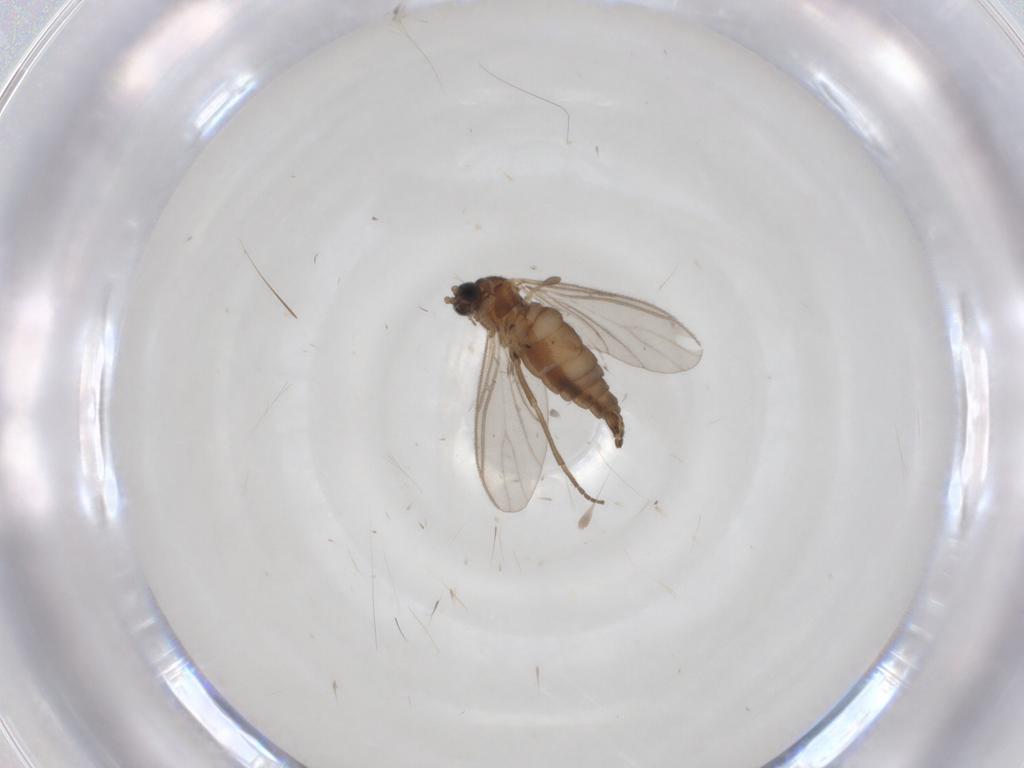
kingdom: Animalia
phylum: Arthropoda
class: Insecta
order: Diptera
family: Sciaridae
